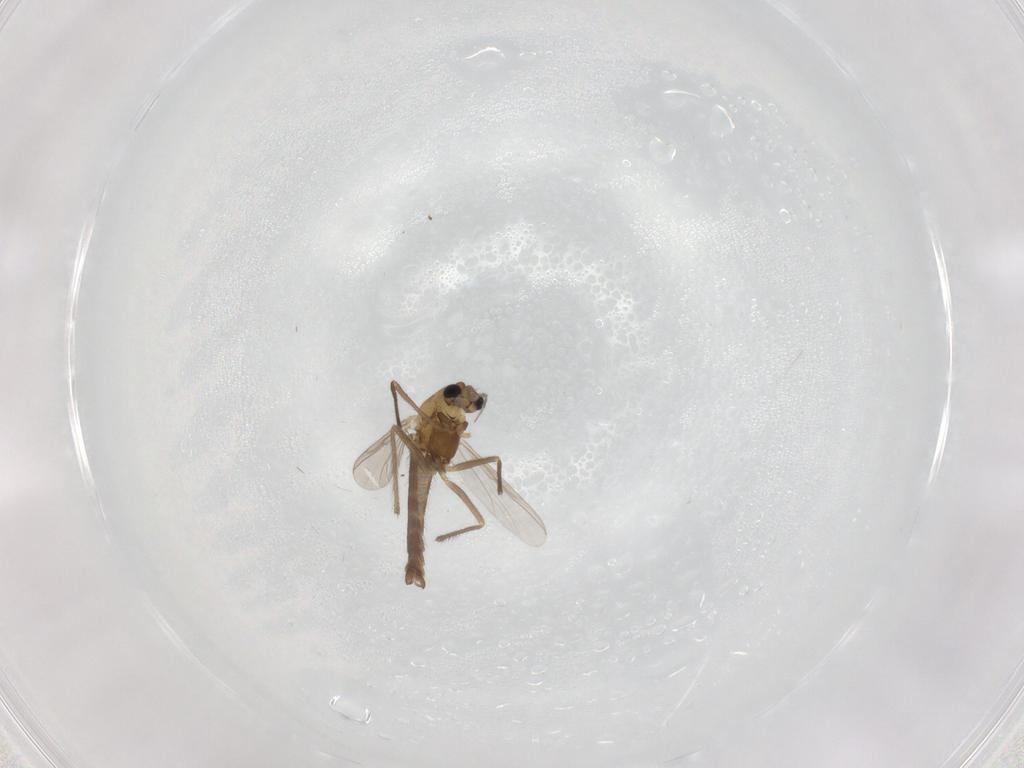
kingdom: Animalia
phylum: Arthropoda
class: Insecta
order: Diptera
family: Chironomidae
